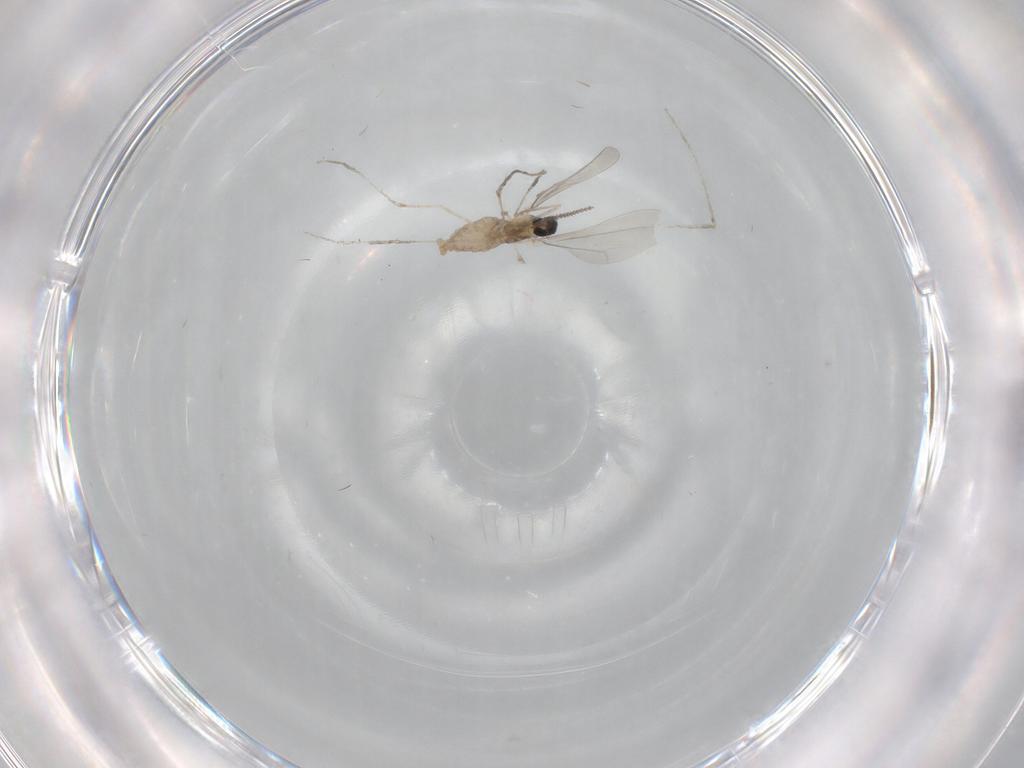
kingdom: Animalia
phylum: Arthropoda
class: Insecta
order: Diptera
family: Cecidomyiidae
